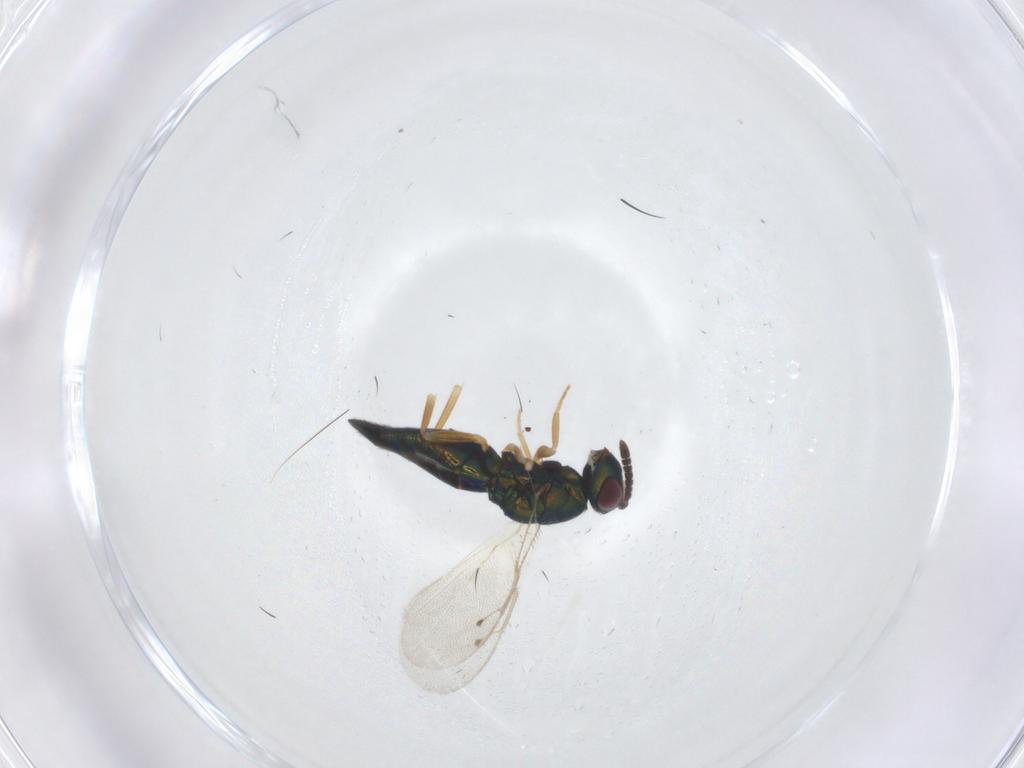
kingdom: Animalia
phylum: Arthropoda
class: Insecta
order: Hymenoptera
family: Pteromalidae
